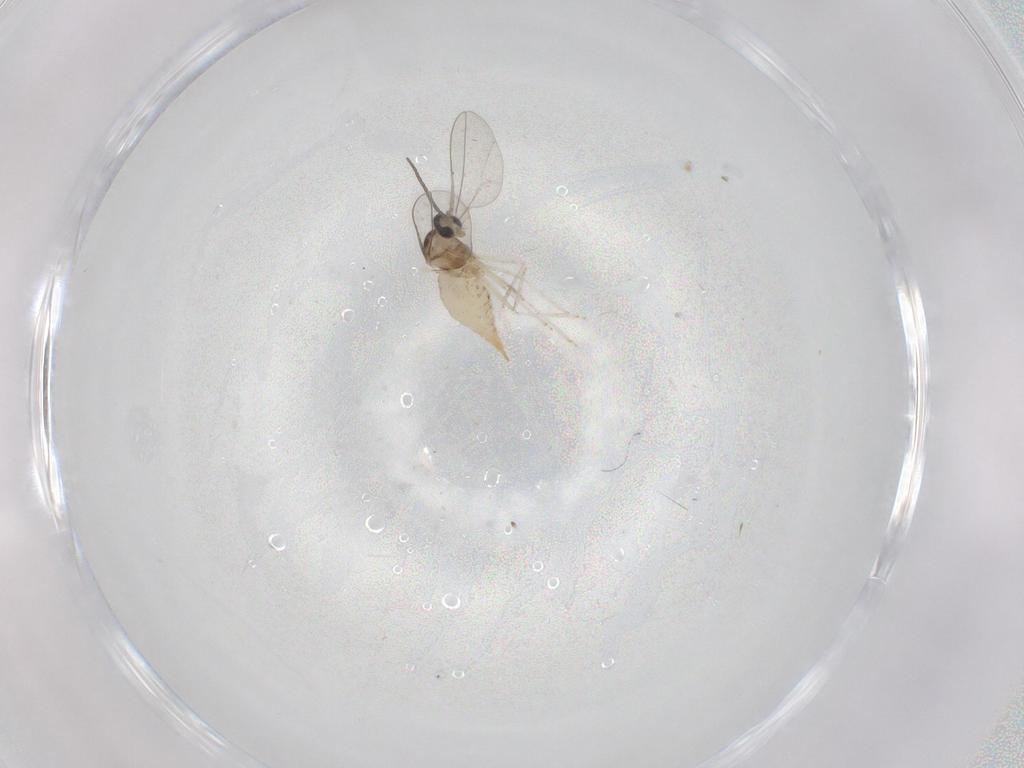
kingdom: Animalia
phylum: Arthropoda
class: Insecta
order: Diptera
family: Cecidomyiidae
